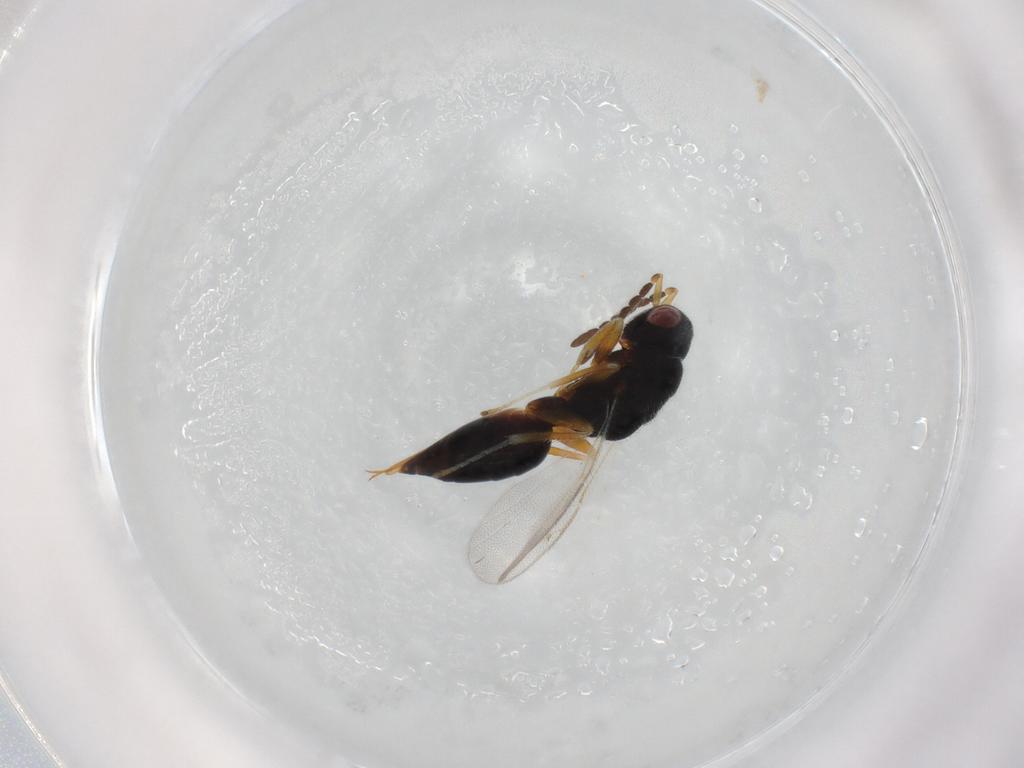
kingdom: Animalia
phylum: Arthropoda
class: Insecta
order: Hymenoptera
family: Eurytomidae
